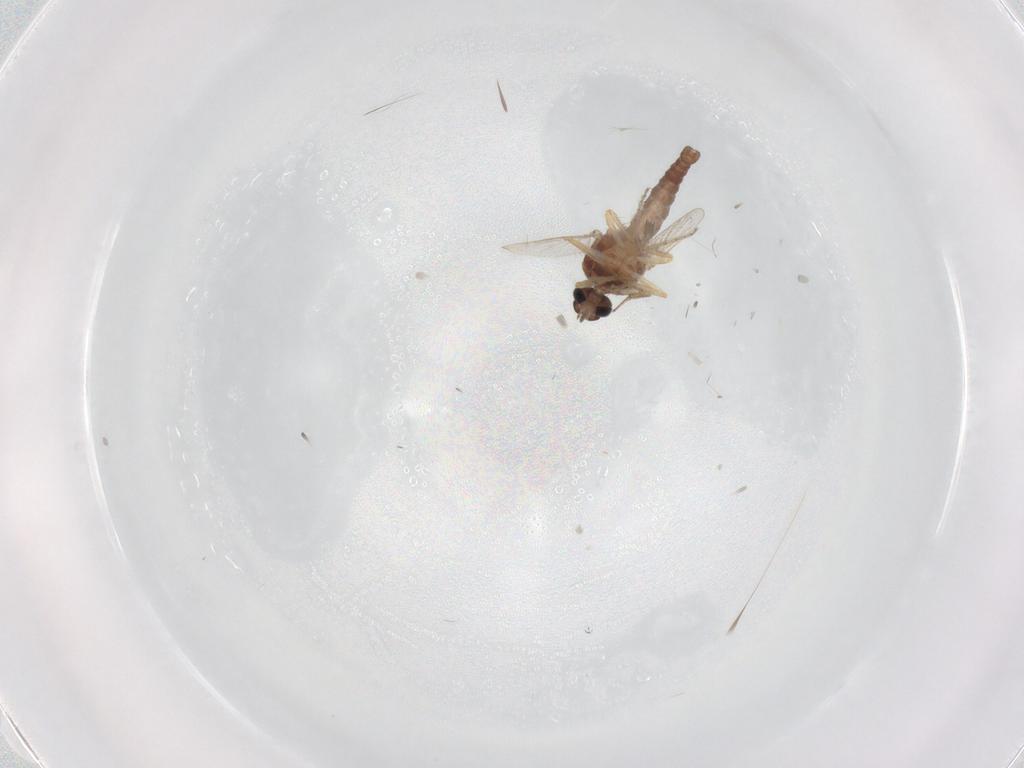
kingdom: Animalia
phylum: Arthropoda
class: Insecta
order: Diptera
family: Ceratopogonidae
